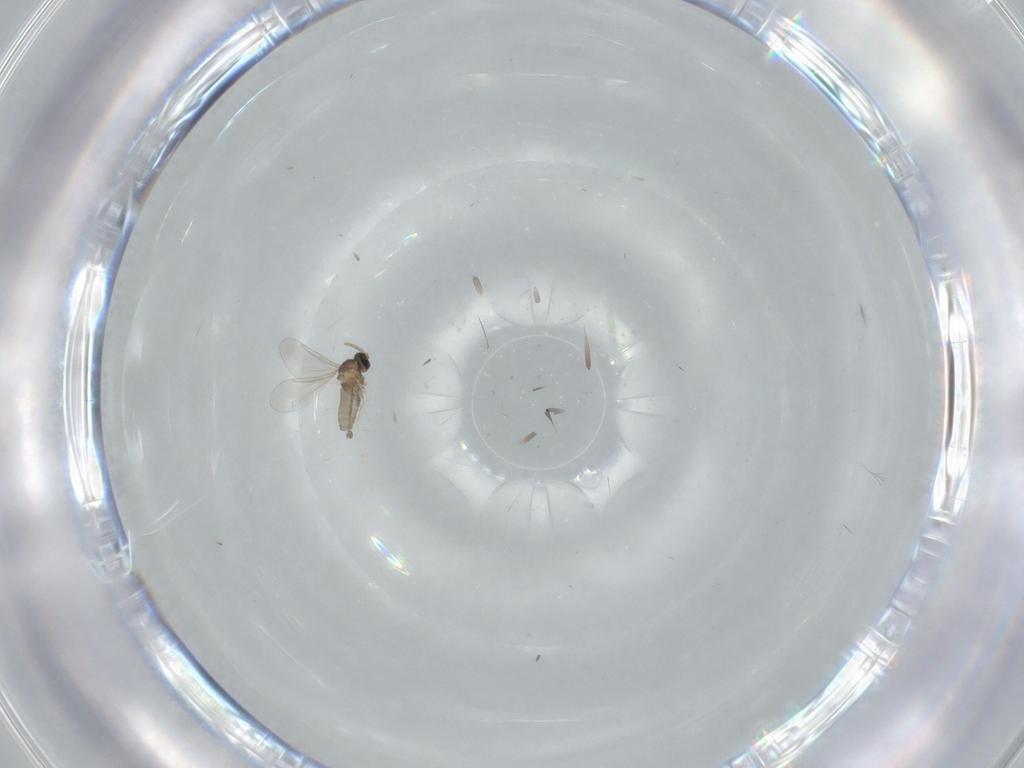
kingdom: Animalia
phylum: Arthropoda
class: Insecta
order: Diptera
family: Cecidomyiidae
